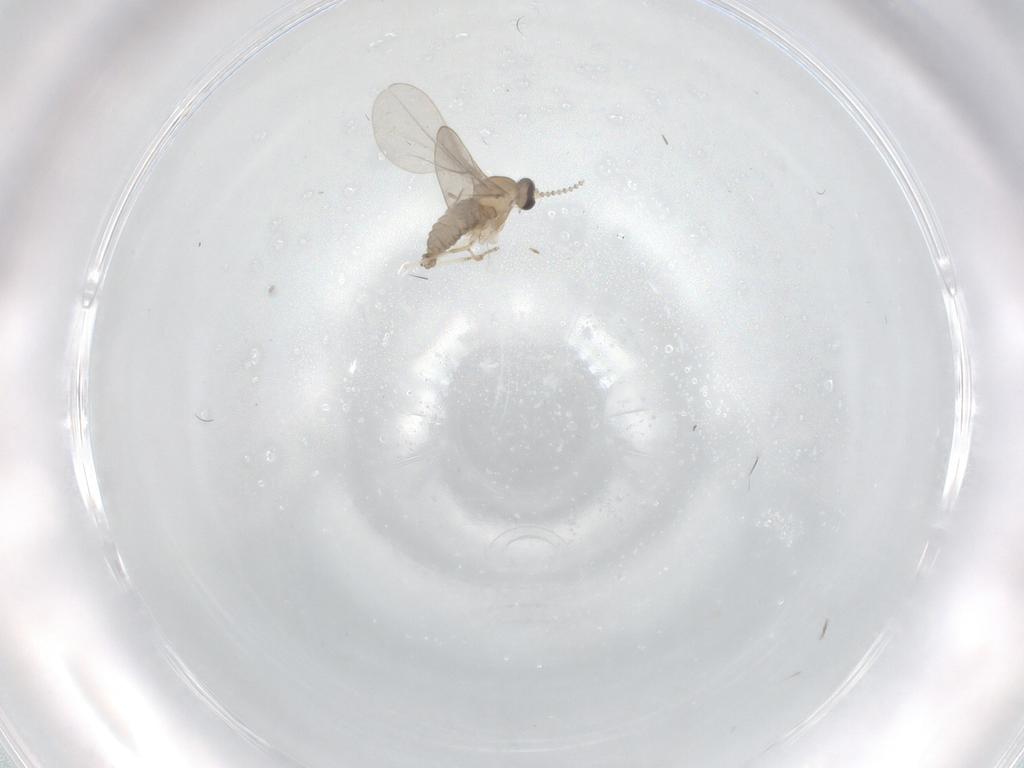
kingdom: Animalia
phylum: Arthropoda
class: Insecta
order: Diptera
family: Cecidomyiidae
